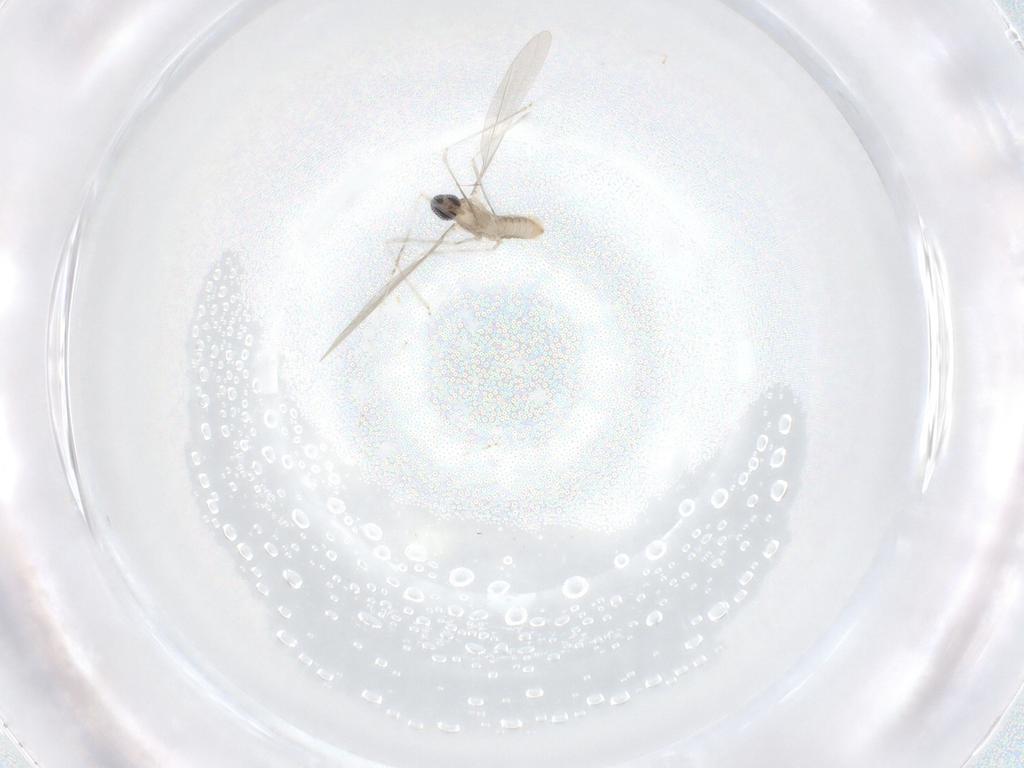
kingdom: Animalia
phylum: Arthropoda
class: Insecta
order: Diptera
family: Cecidomyiidae
